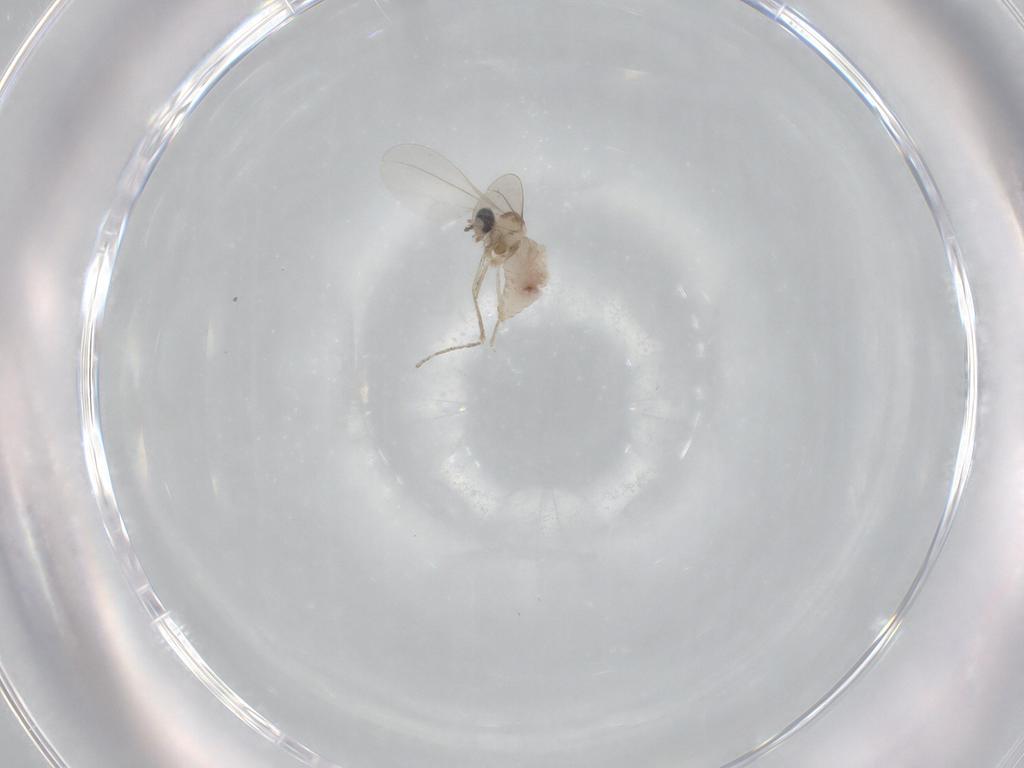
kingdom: Animalia
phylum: Arthropoda
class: Insecta
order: Diptera
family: Cecidomyiidae
